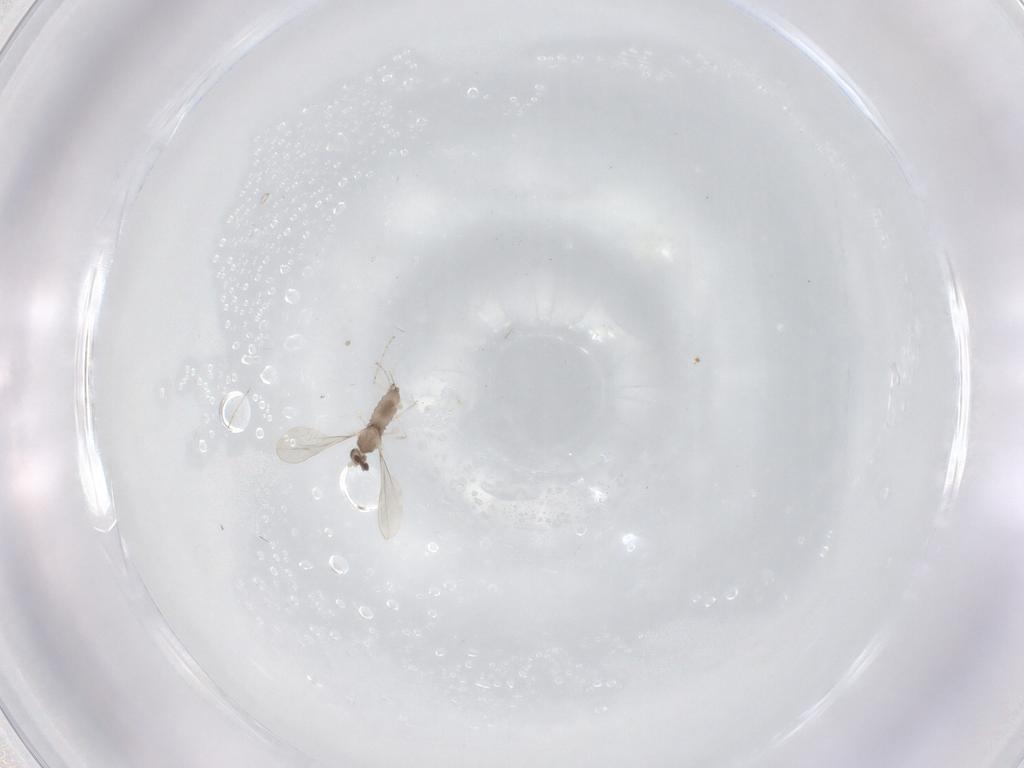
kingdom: Animalia
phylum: Arthropoda
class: Insecta
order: Diptera
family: Cecidomyiidae
